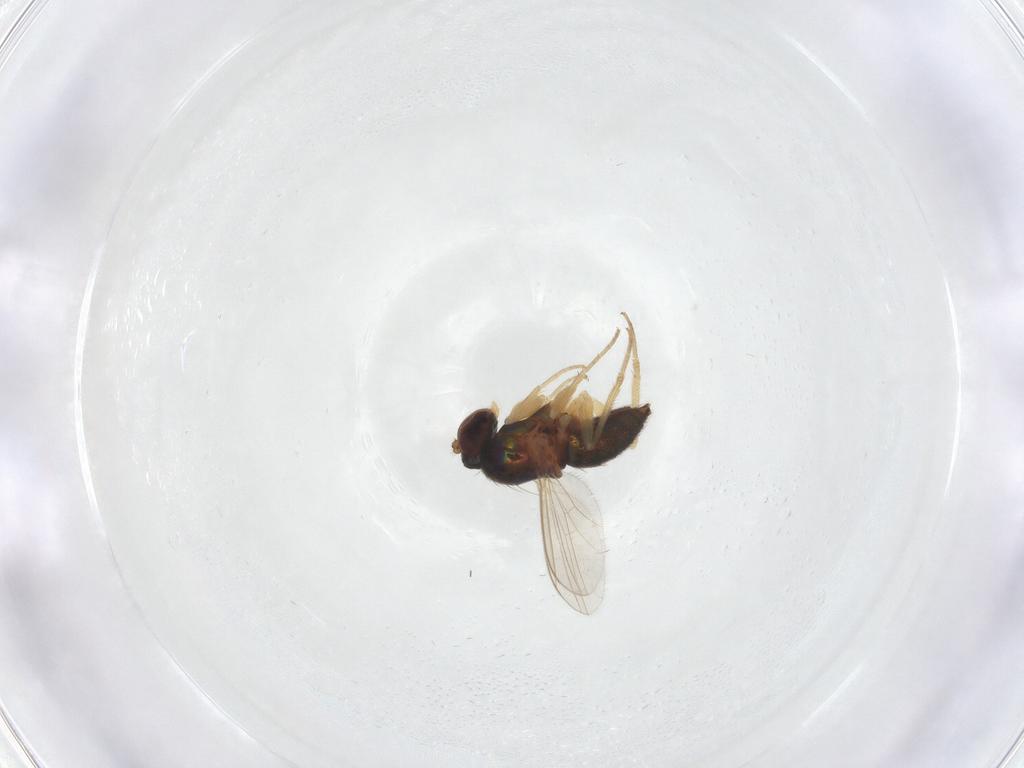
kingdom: Animalia
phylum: Arthropoda
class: Insecta
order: Diptera
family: Dolichopodidae
